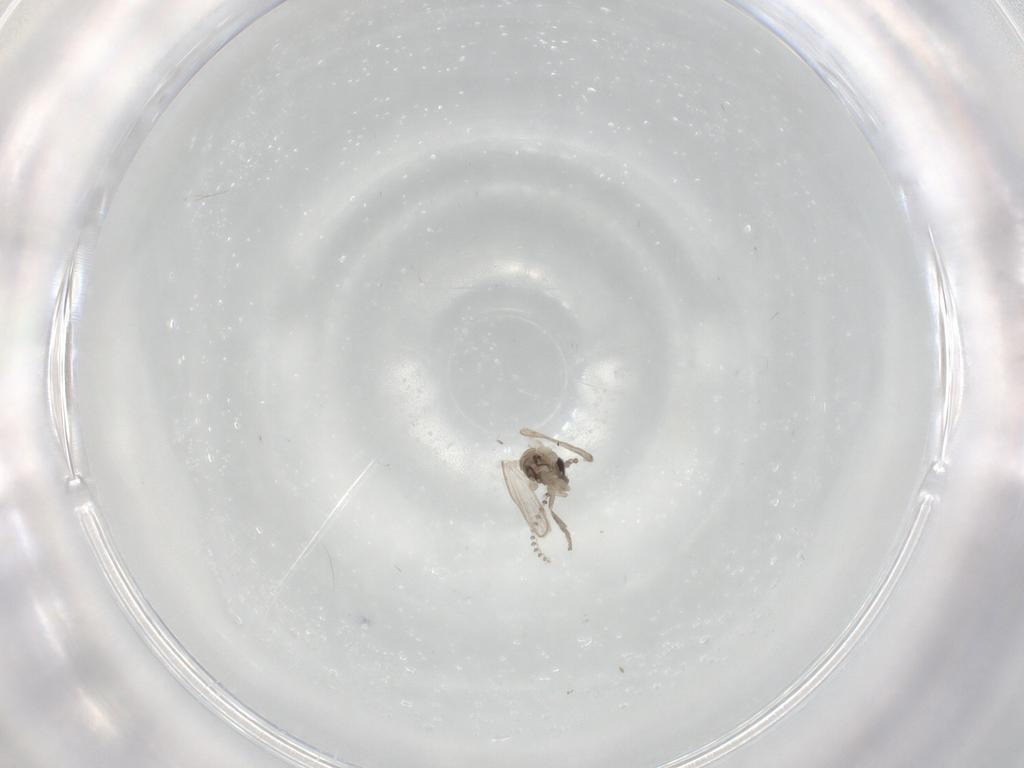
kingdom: Animalia
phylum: Arthropoda
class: Insecta
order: Diptera
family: Psychodidae
